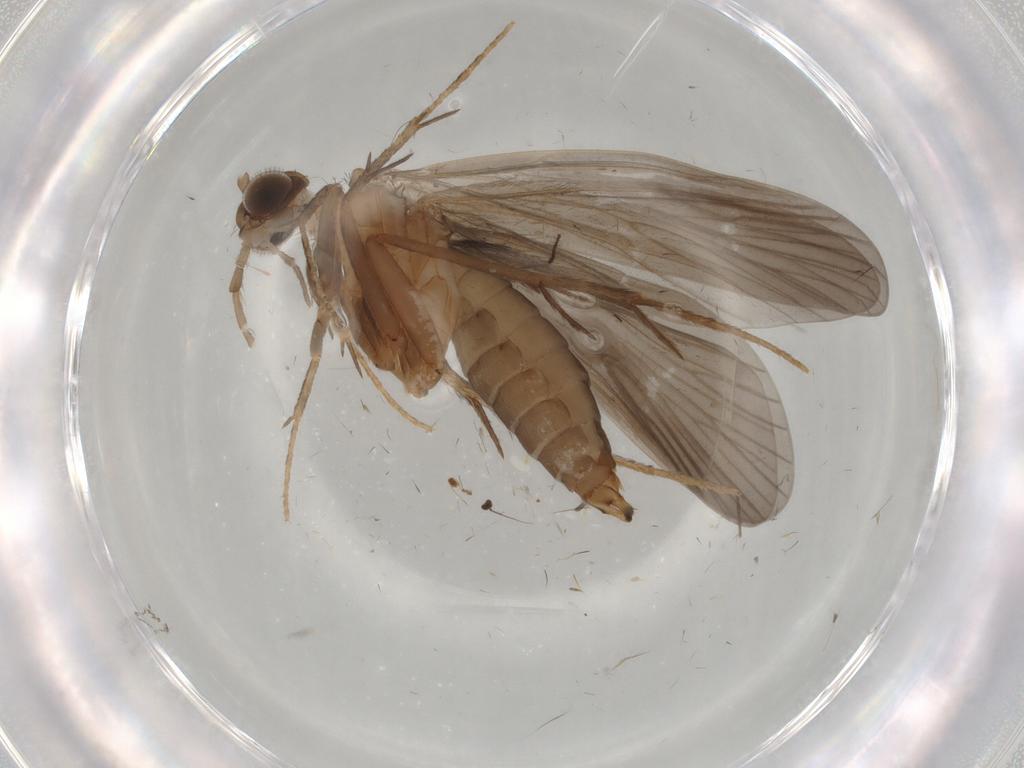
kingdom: Animalia
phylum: Arthropoda
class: Insecta
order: Trichoptera
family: Philopotamidae
